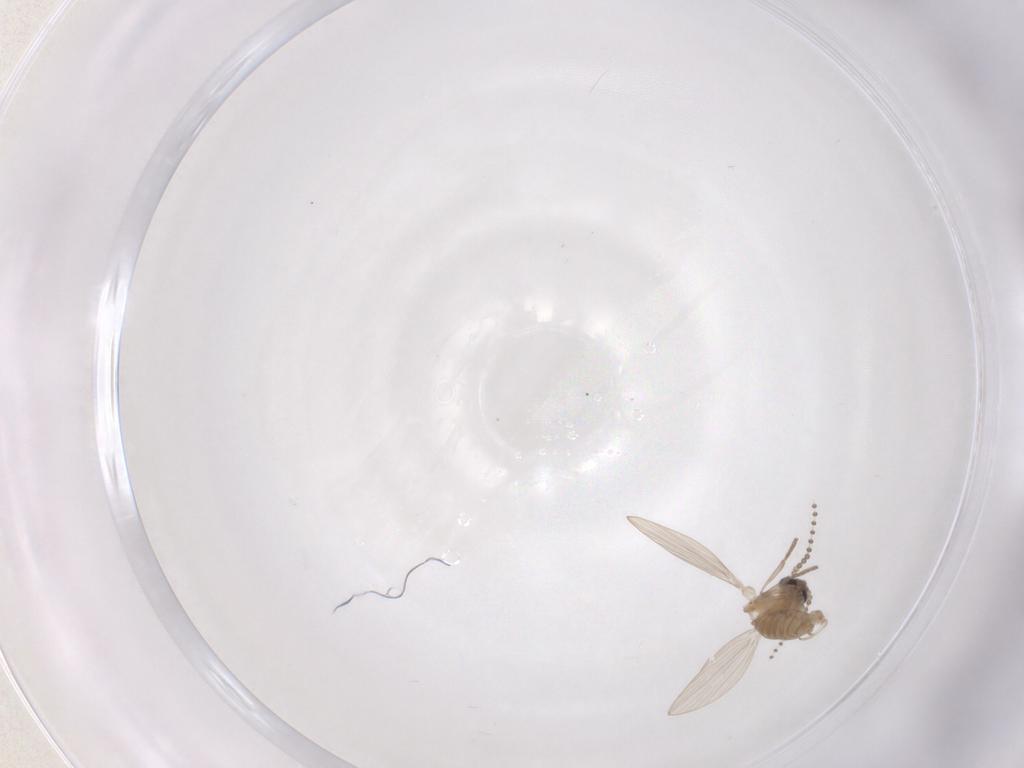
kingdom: Animalia
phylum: Arthropoda
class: Insecta
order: Diptera
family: Psychodidae
